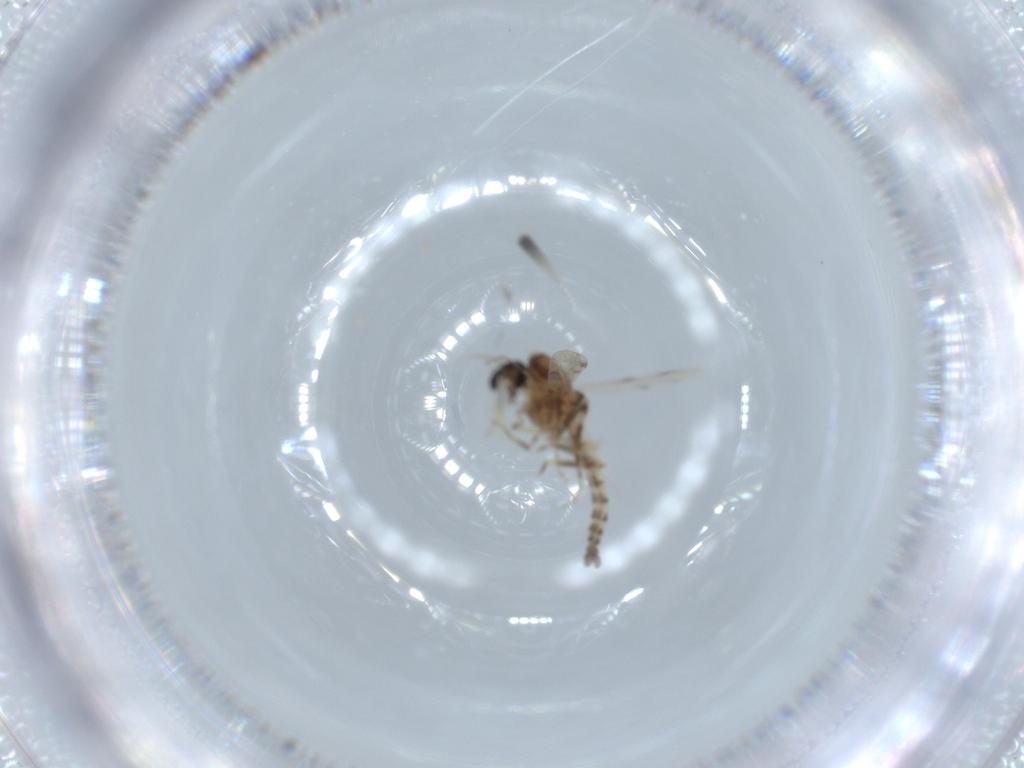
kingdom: Animalia
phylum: Arthropoda
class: Insecta
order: Diptera
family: Ceratopogonidae
